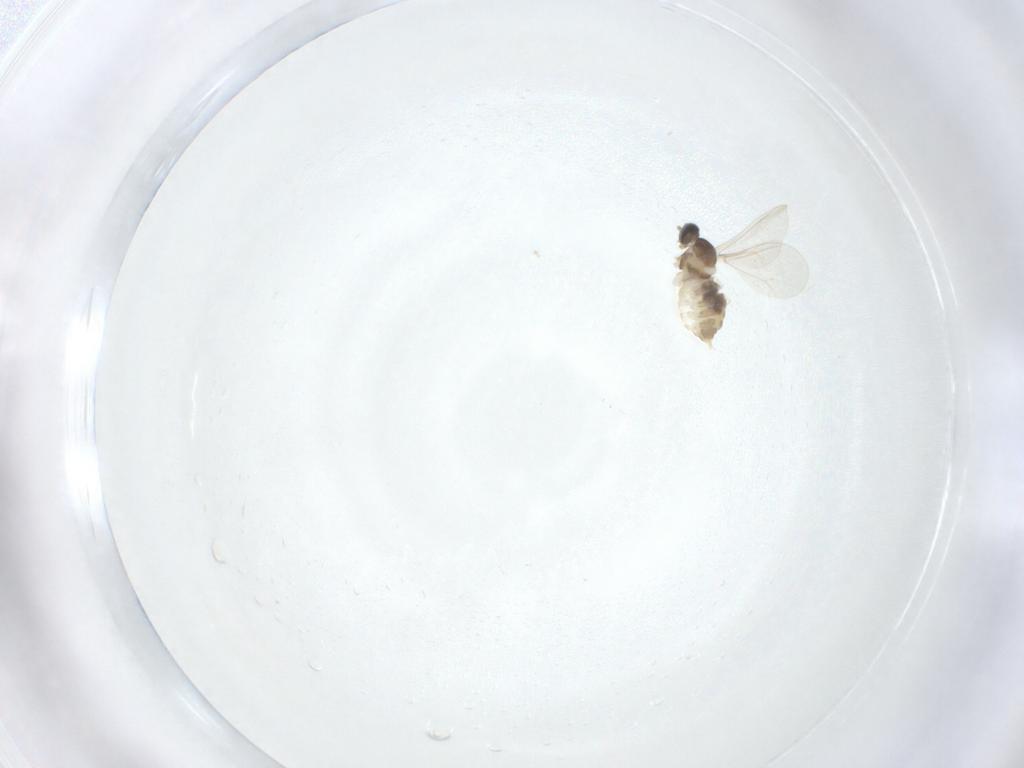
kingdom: Animalia
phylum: Arthropoda
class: Insecta
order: Diptera
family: Cecidomyiidae
